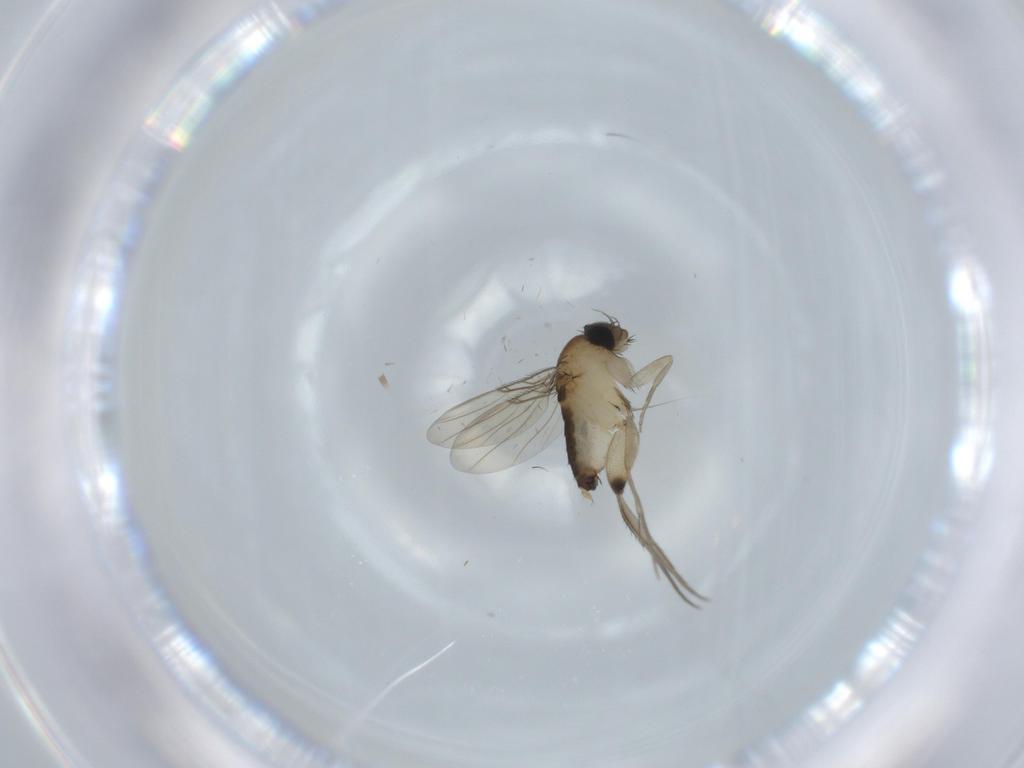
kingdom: Animalia
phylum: Arthropoda
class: Insecta
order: Diptera
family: Phoridae
